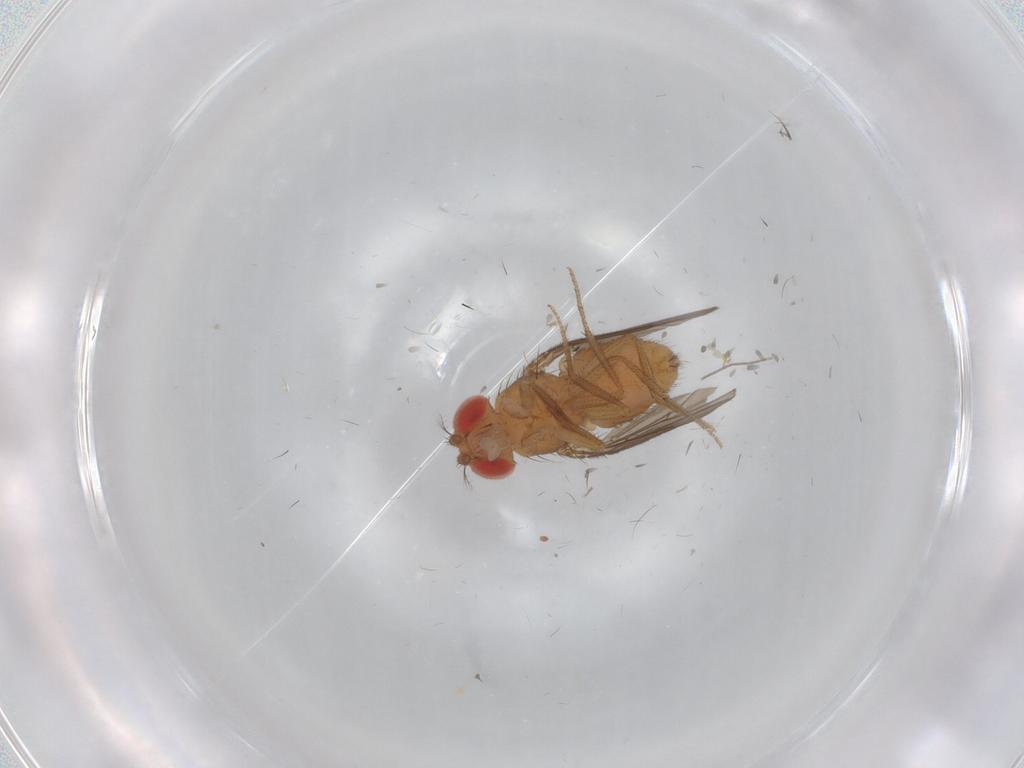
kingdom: Animalia
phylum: Arthropoda
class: Insecta
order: Diptera
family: Drosophilidae
